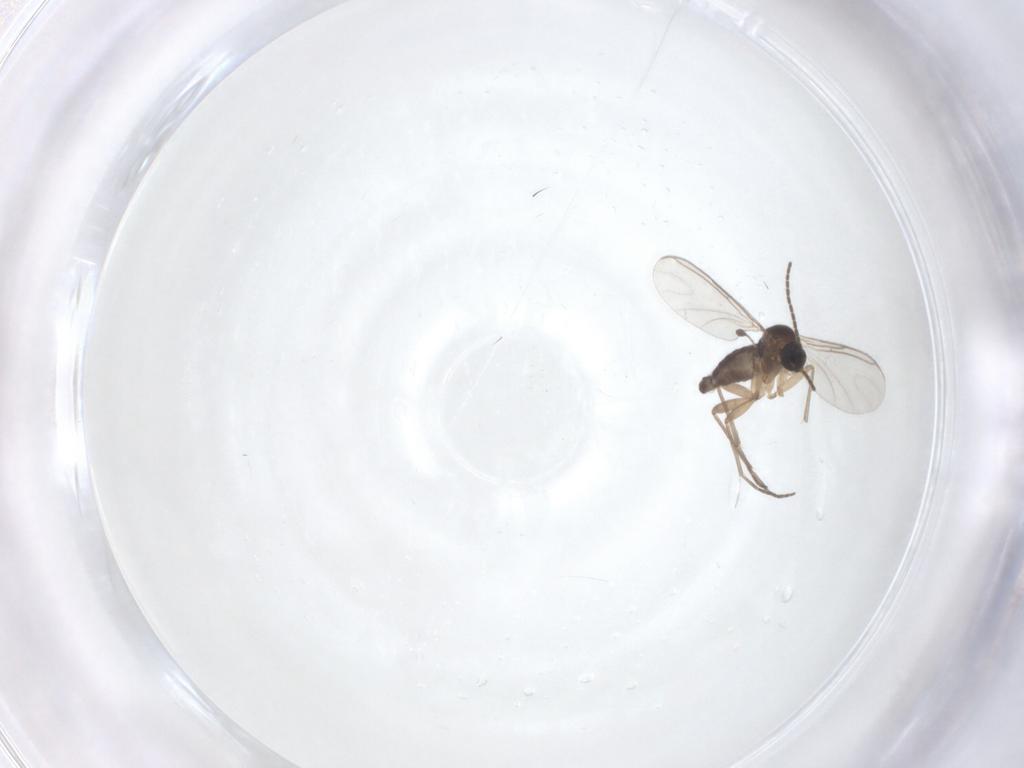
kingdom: Animalia
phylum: Arthropoda
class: Insecta
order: Diptera
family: Sciaridae
